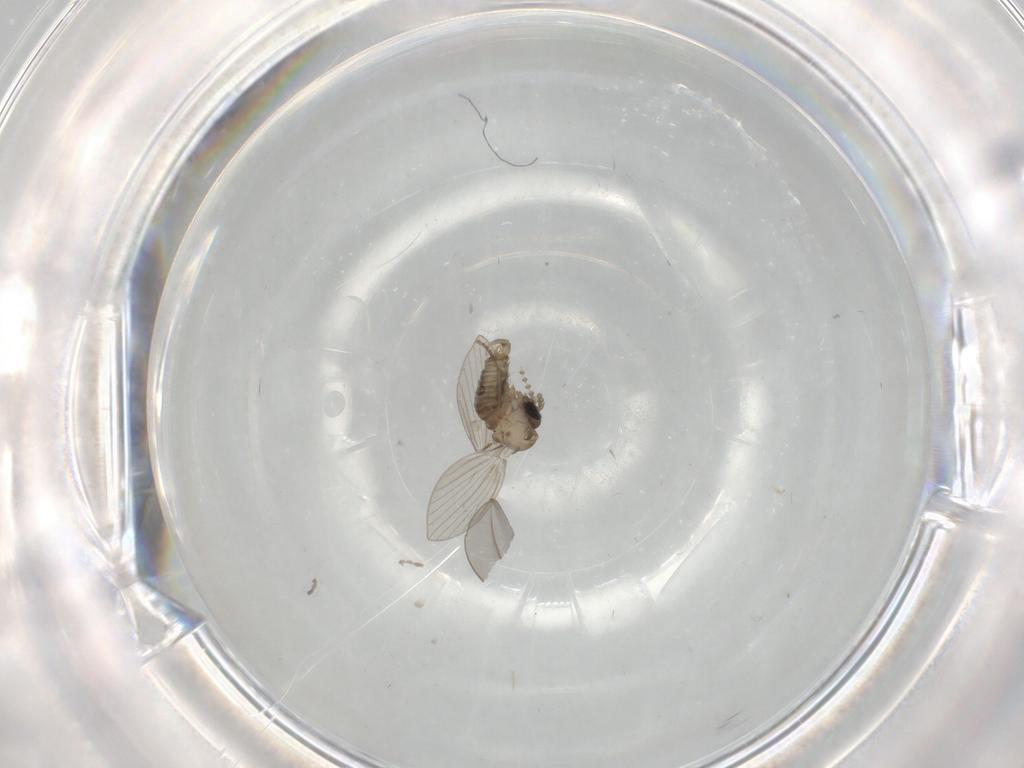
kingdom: Animalia
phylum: Arthropoda
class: Insecta
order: Diptera
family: Psychodidae
